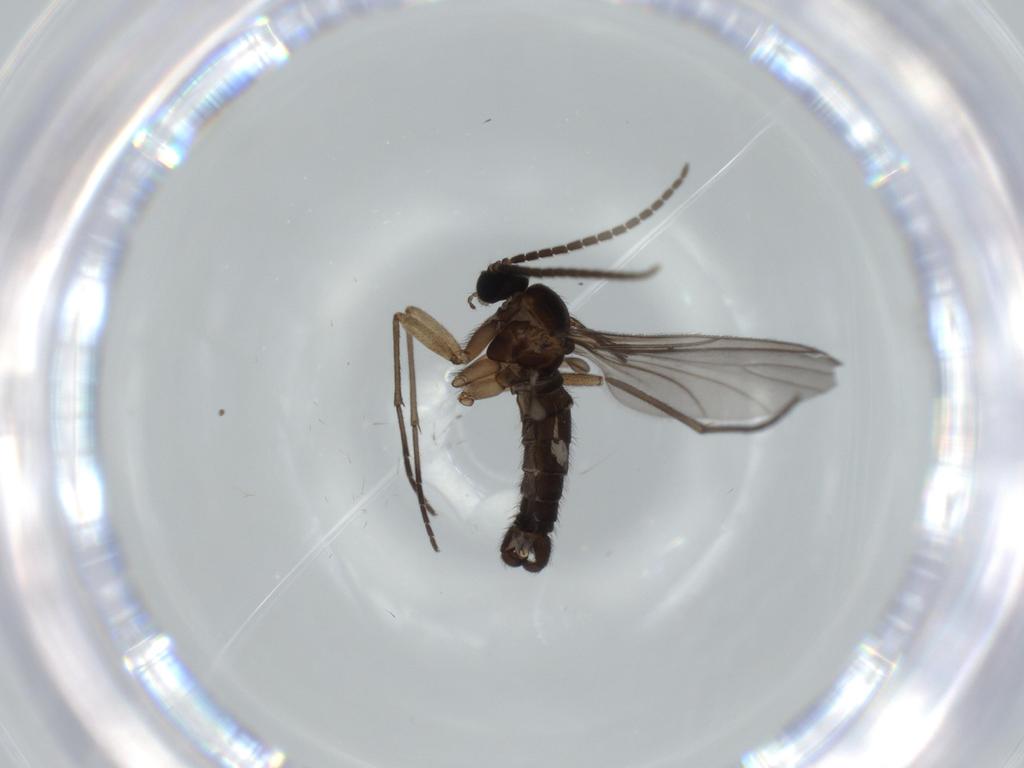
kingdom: Animalia
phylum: Arthropoda
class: Insecta
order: Diptera
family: Sciaridae
